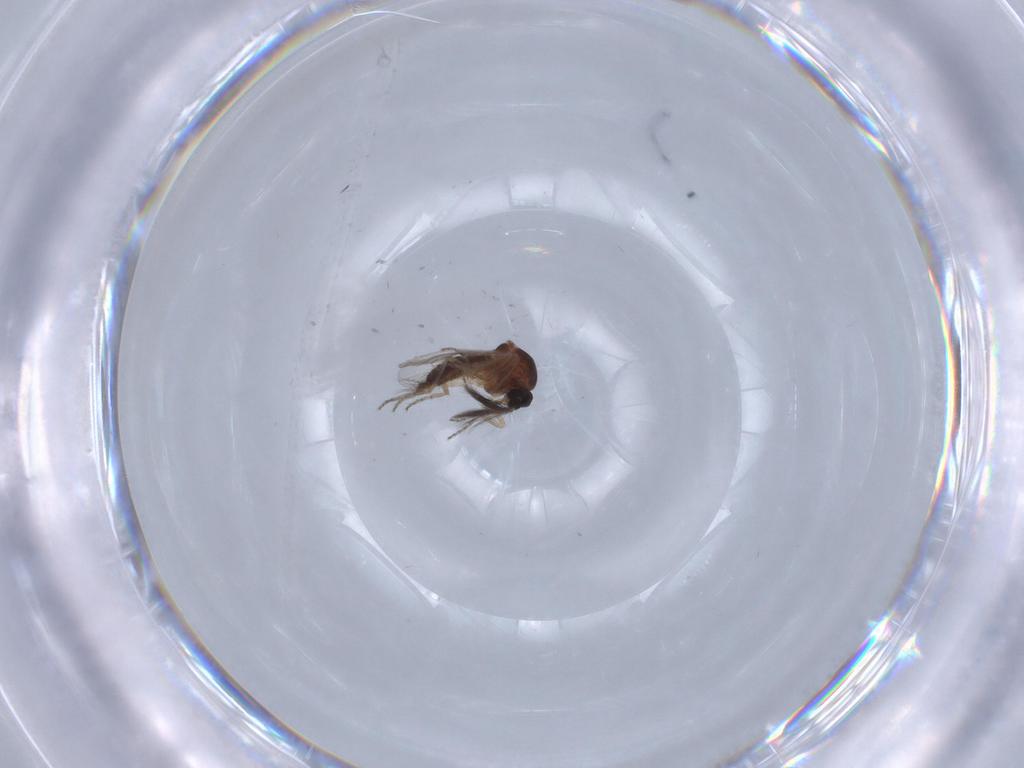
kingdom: Animalia
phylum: Arthropoda
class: Insecta
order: Diptera
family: Ceratopogonidae
